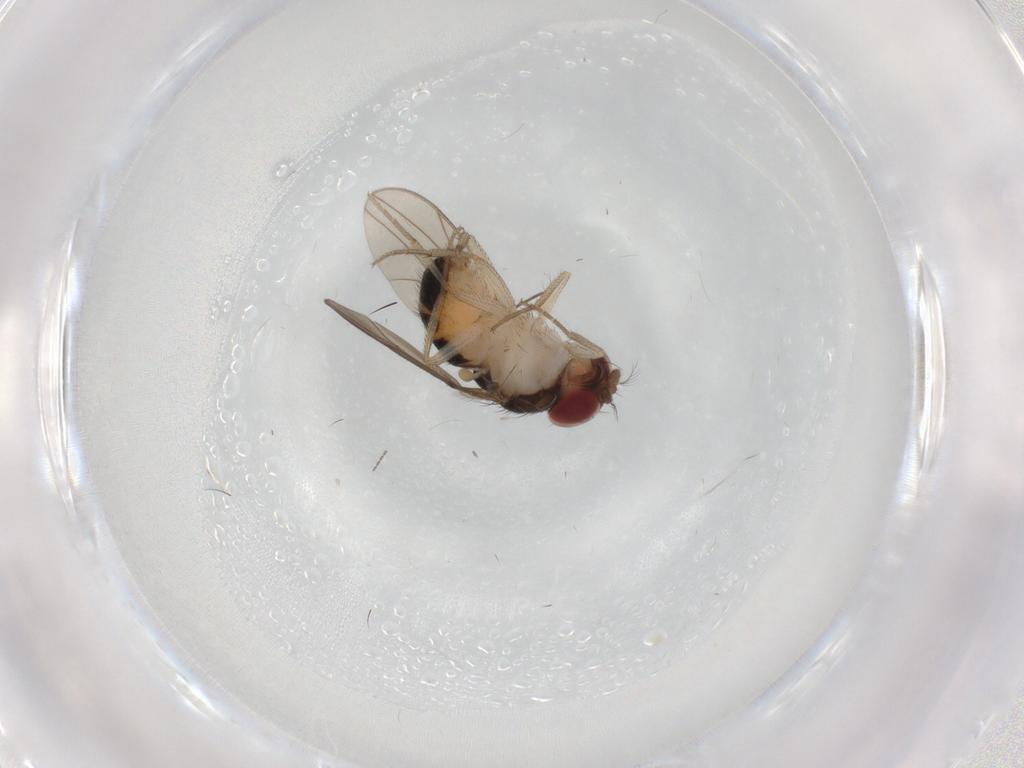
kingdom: Animalia
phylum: Arthropoda
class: Insecta
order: Diptera
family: Drosophilidae
